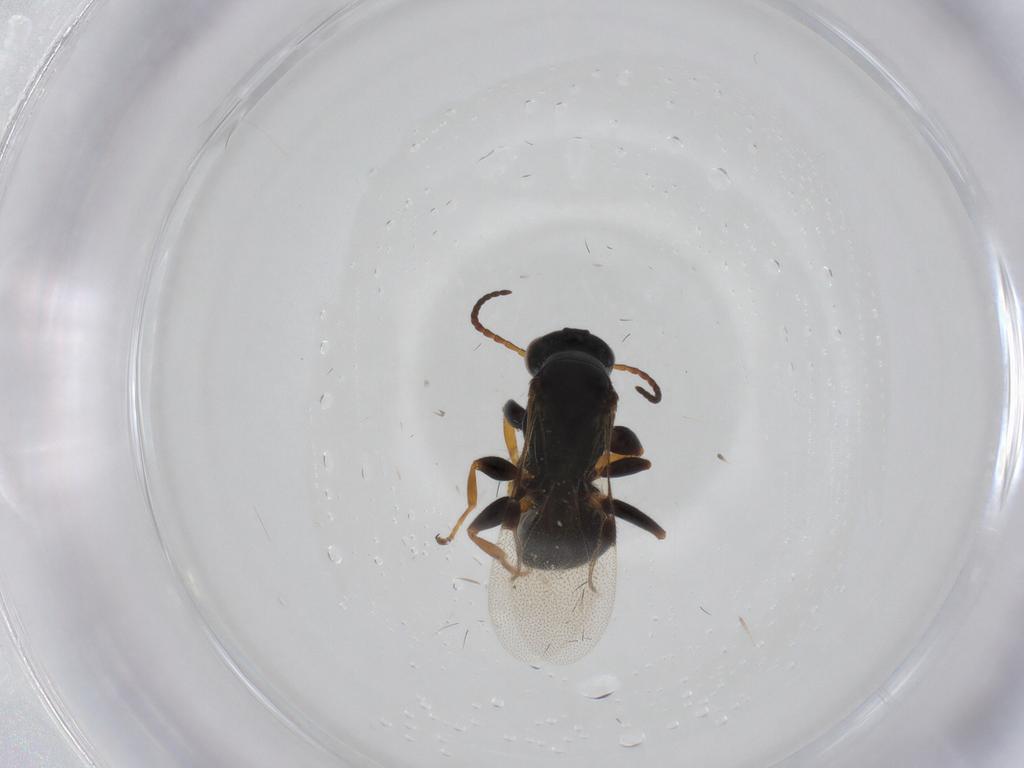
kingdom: Animalia
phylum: Arthropoda
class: Insecta
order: Hymenoptera
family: Bethylidae
